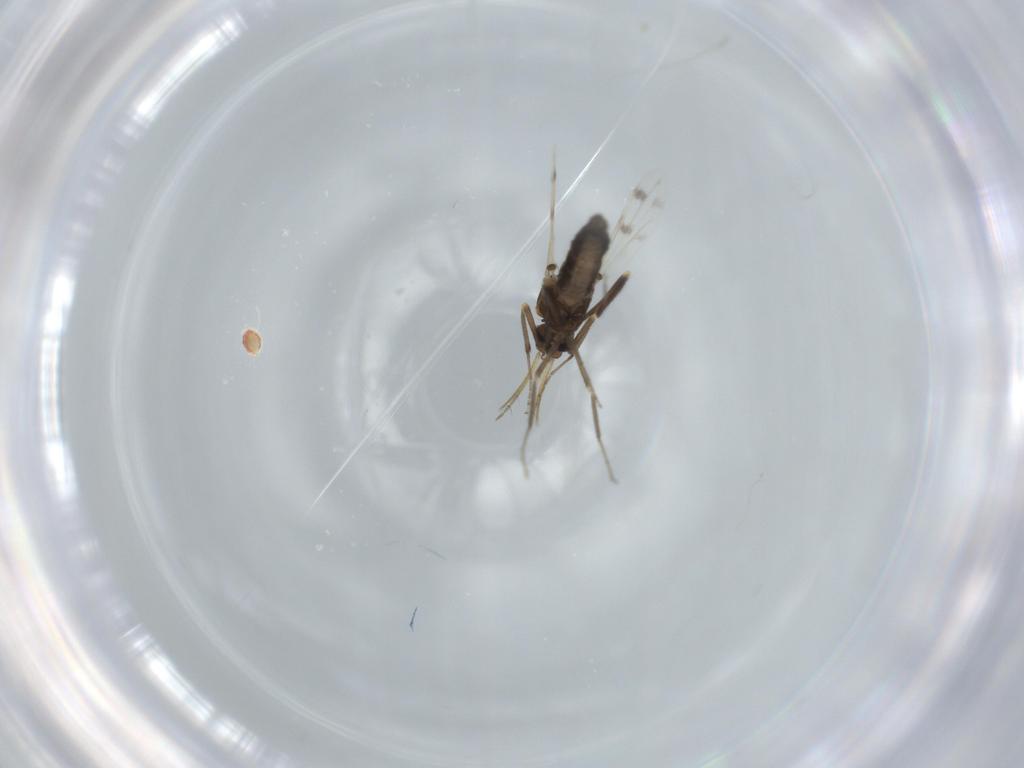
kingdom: Animalia
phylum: Arthropoda
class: Insecta
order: Diptera
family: Ceratopogonidae
